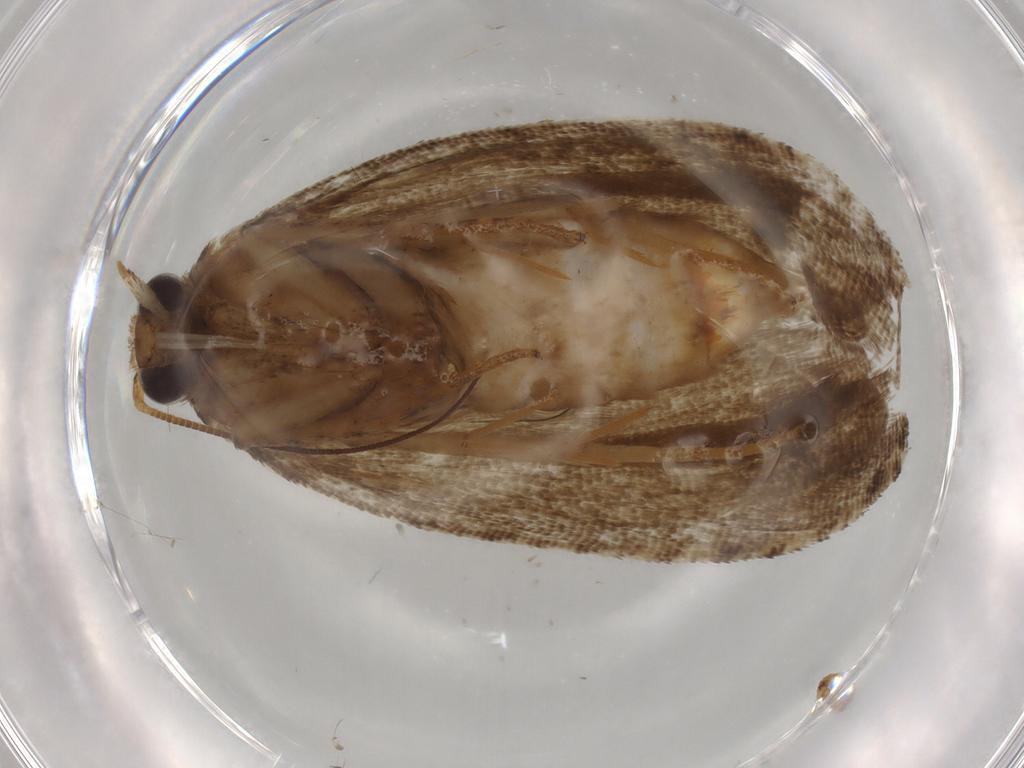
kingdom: Animalia
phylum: Arthropoda
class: Insecta
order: Diptera
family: Cecidomyiidae
